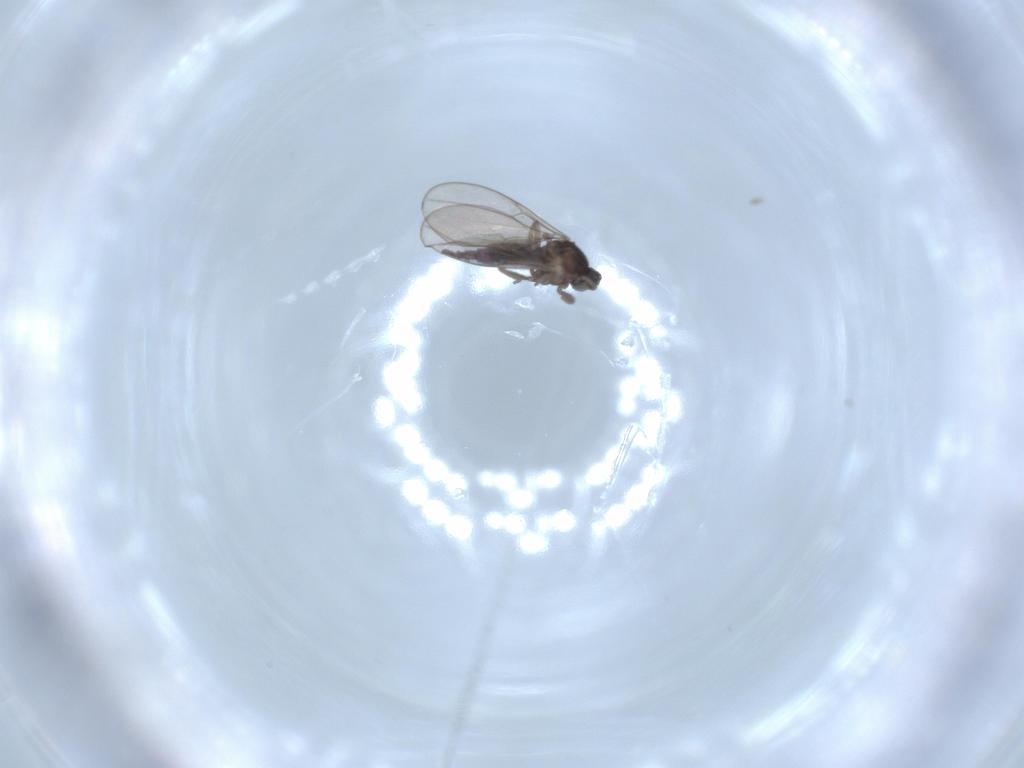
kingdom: Animalia
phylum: Arthropoda
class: Insecta
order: Diptera
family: Cecidomyiidae
